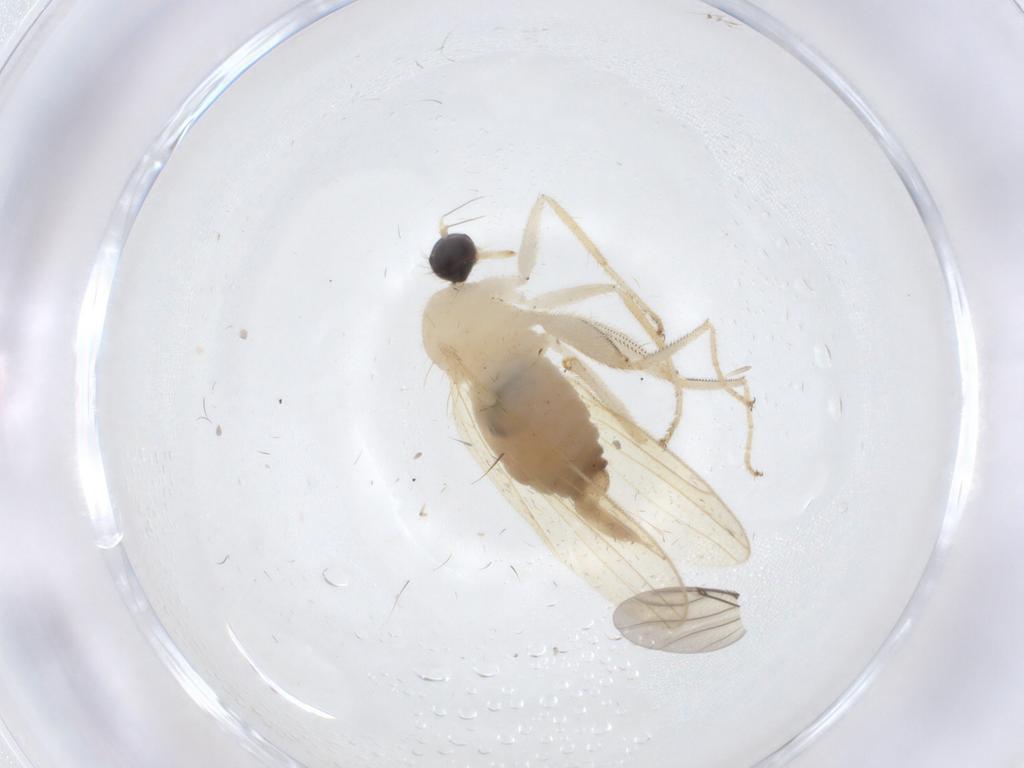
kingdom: Animalia
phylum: Arthropoda
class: Insecta
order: Diptera
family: Hybotidae
